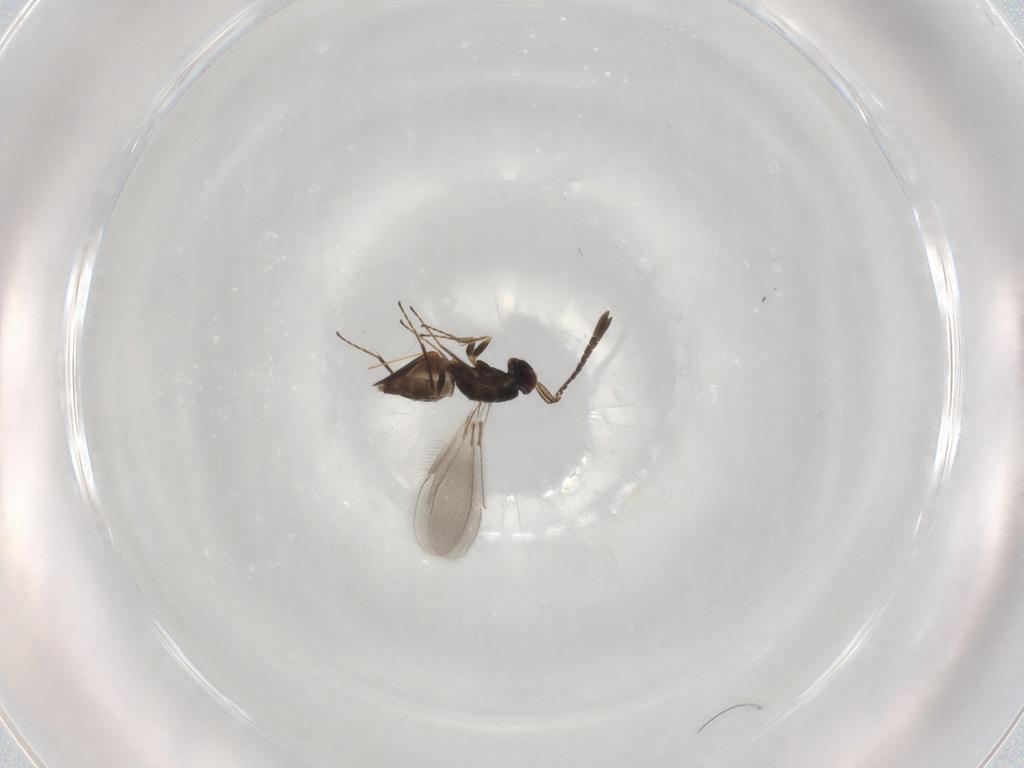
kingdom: Animalia
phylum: Arthropoda
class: Insecta
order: Hymenoptera
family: Mymaridae
